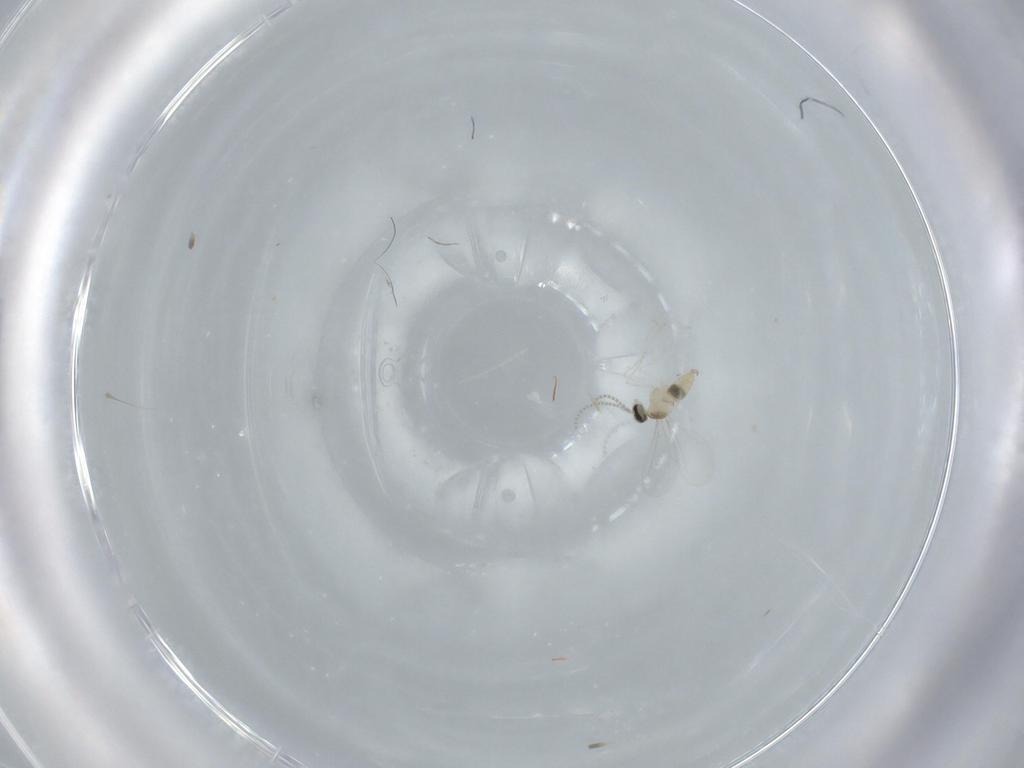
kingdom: Animalia
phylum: Arthropoda
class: Insecta
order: Diptera
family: Cecidomyiidae
